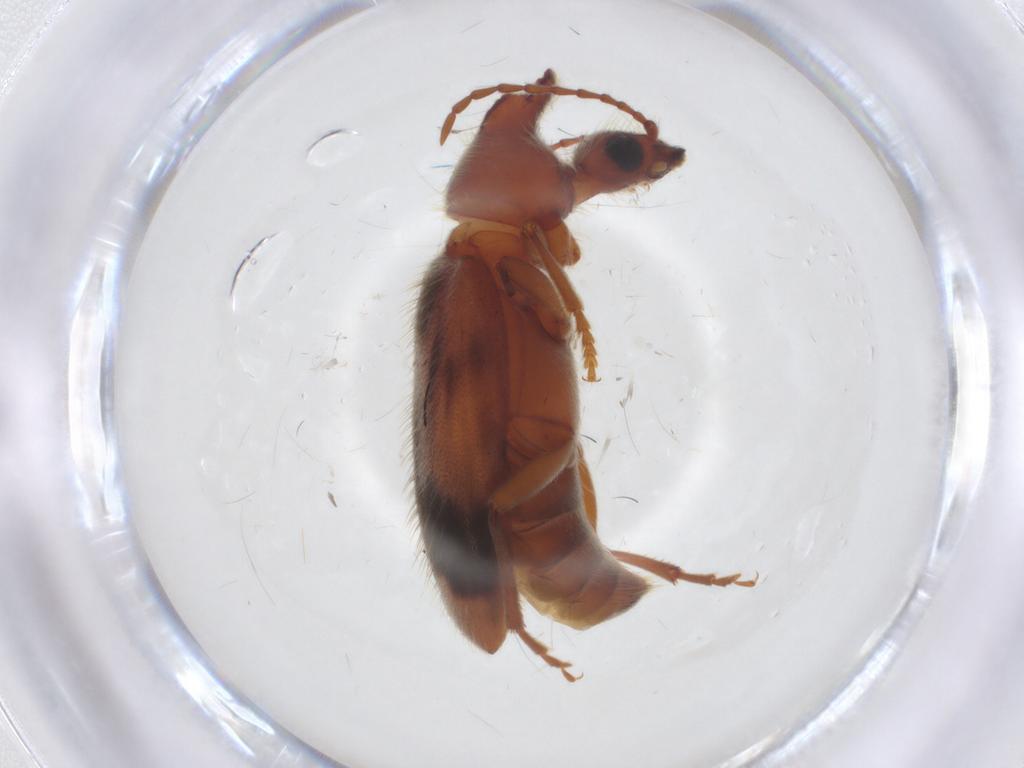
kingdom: Animalia
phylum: Arthropoda
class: Insecta
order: Coleoptera
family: Anthicidae
